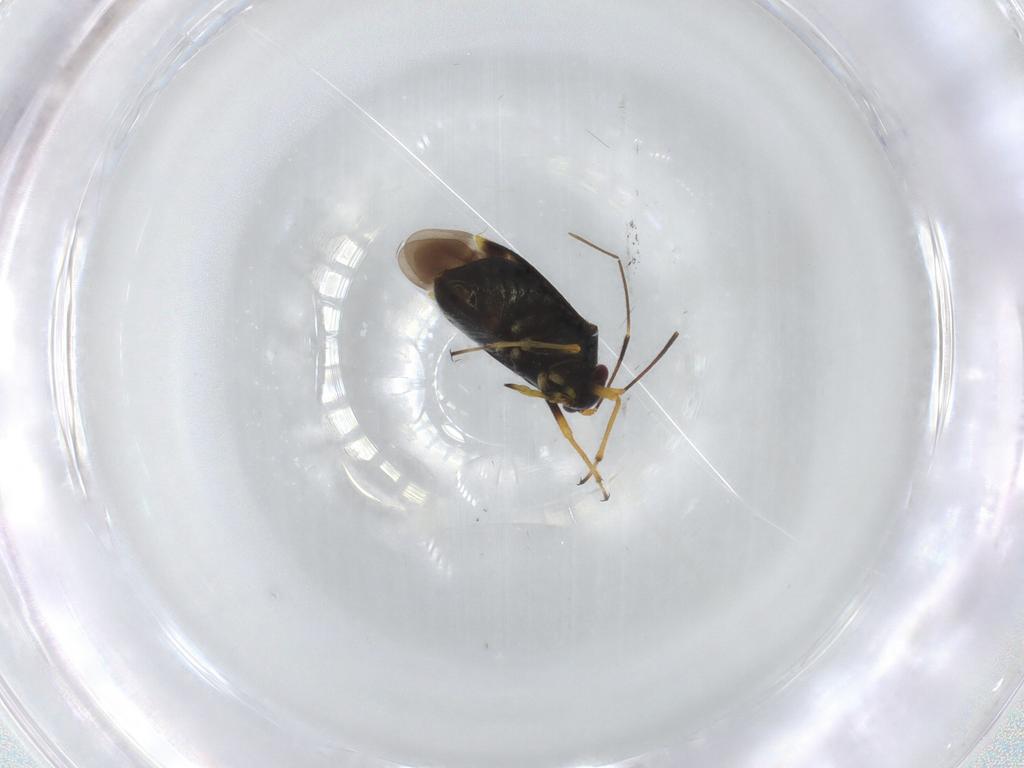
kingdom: Animalia
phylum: Arthropoda
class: Insecta
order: Hemiptera
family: Miridae
